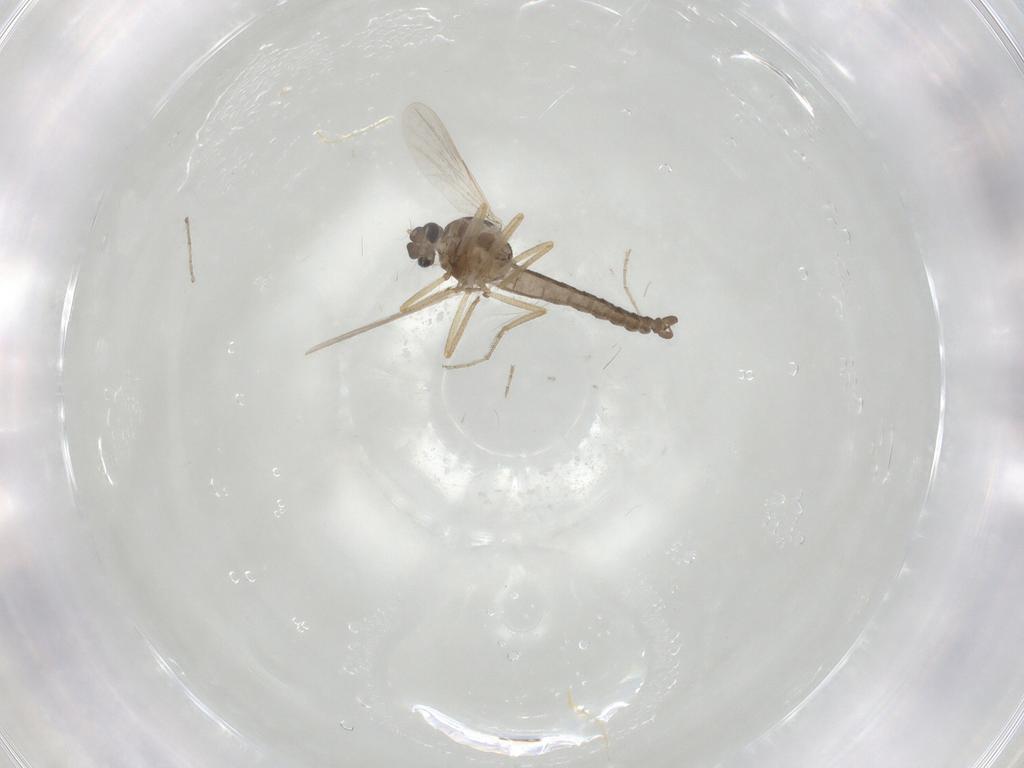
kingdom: Animalia
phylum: Arthropoda
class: Insecta
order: Diptera
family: Ceratopogonidae
